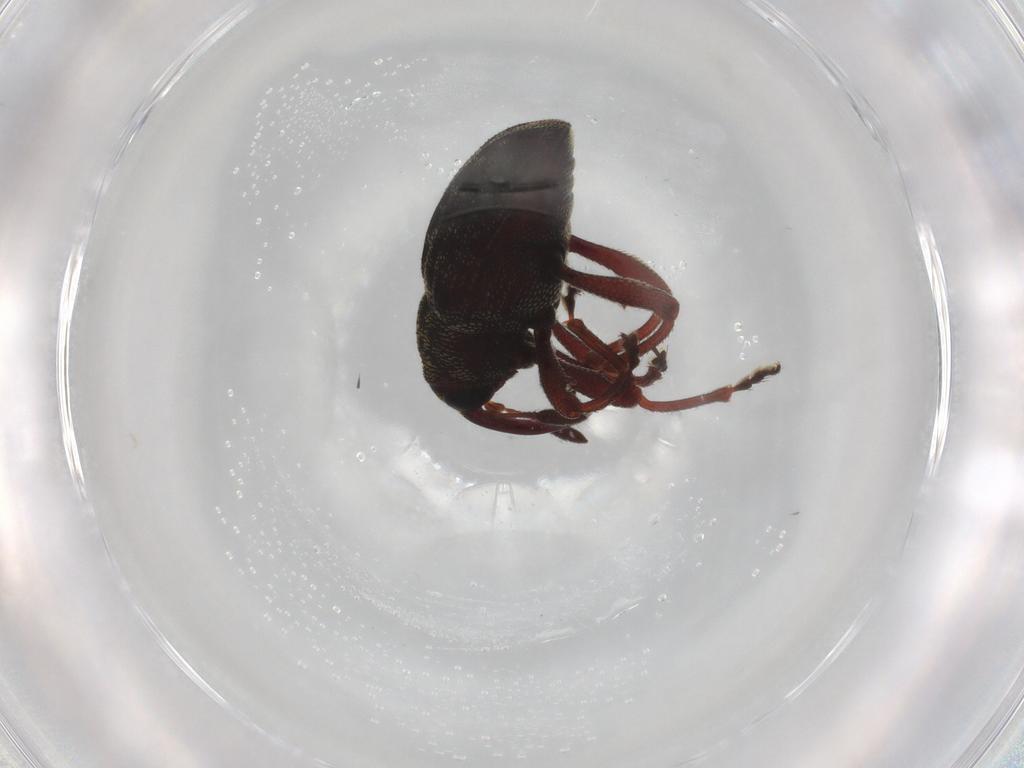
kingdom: Animalia
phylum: Arthropoda
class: Insecta
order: Coleoptera
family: Curculionidae
